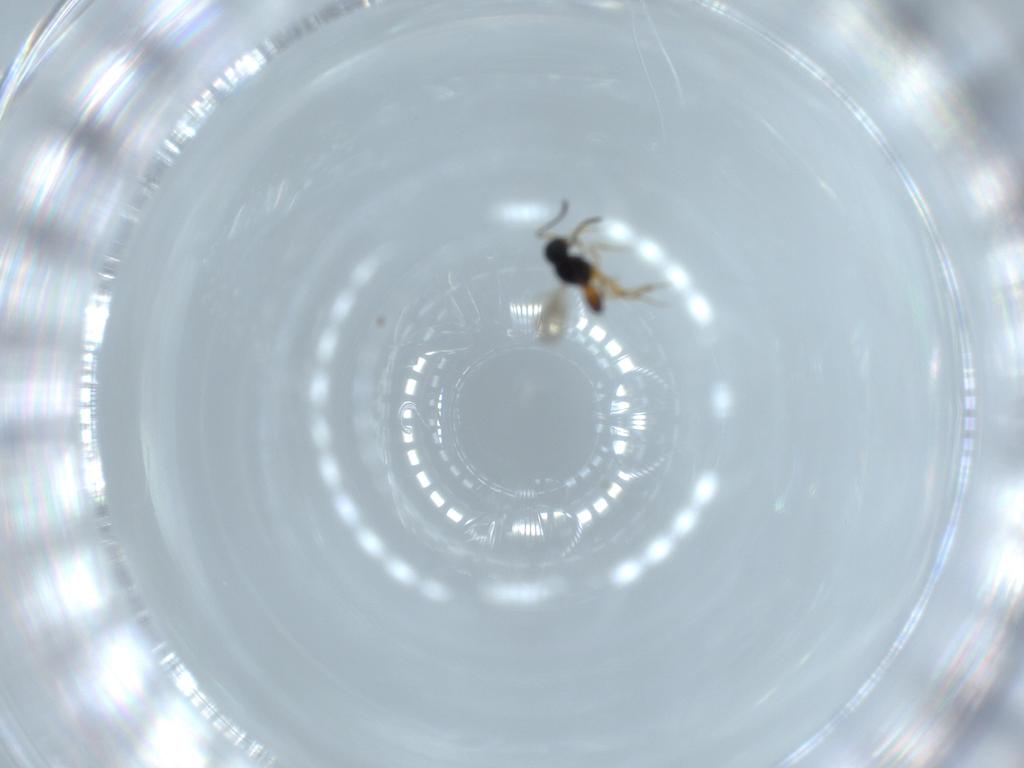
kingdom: Animalia
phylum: Arthropoda
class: Insecta
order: Hymenoptera
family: Scelionidae
